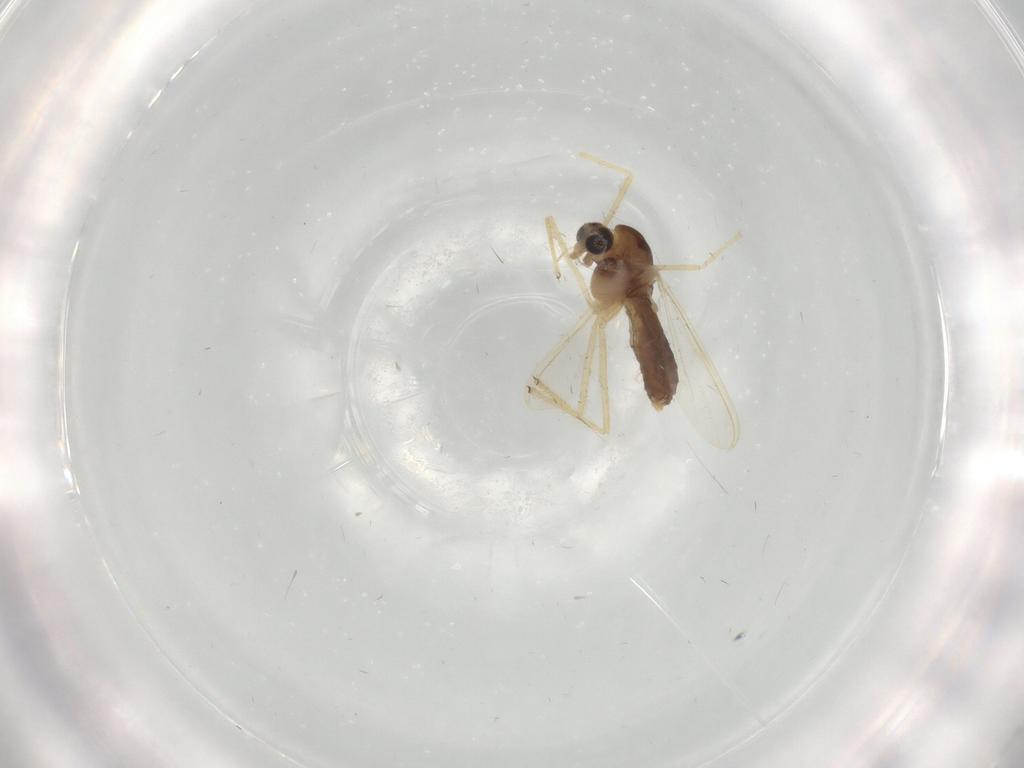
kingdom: Animalia
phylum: Arthropoda
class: Insecta
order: Diptera
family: Chironomidae
